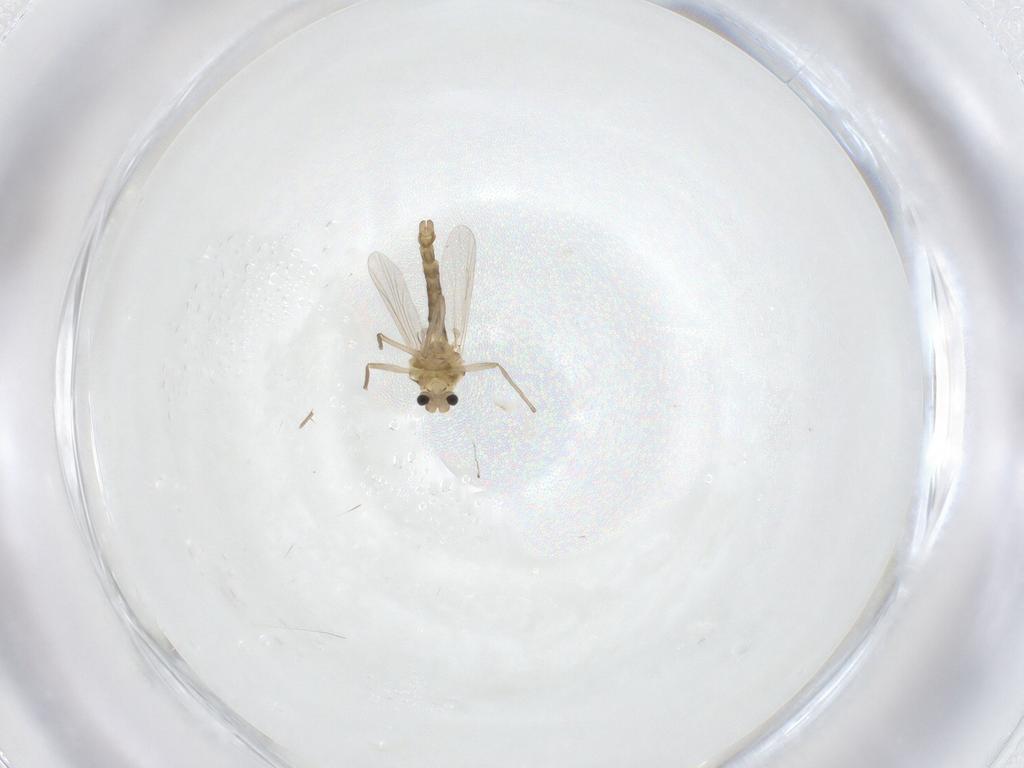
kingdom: Animalia
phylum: Arthropoda
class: Insecta
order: Diptera
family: Chironomidae
